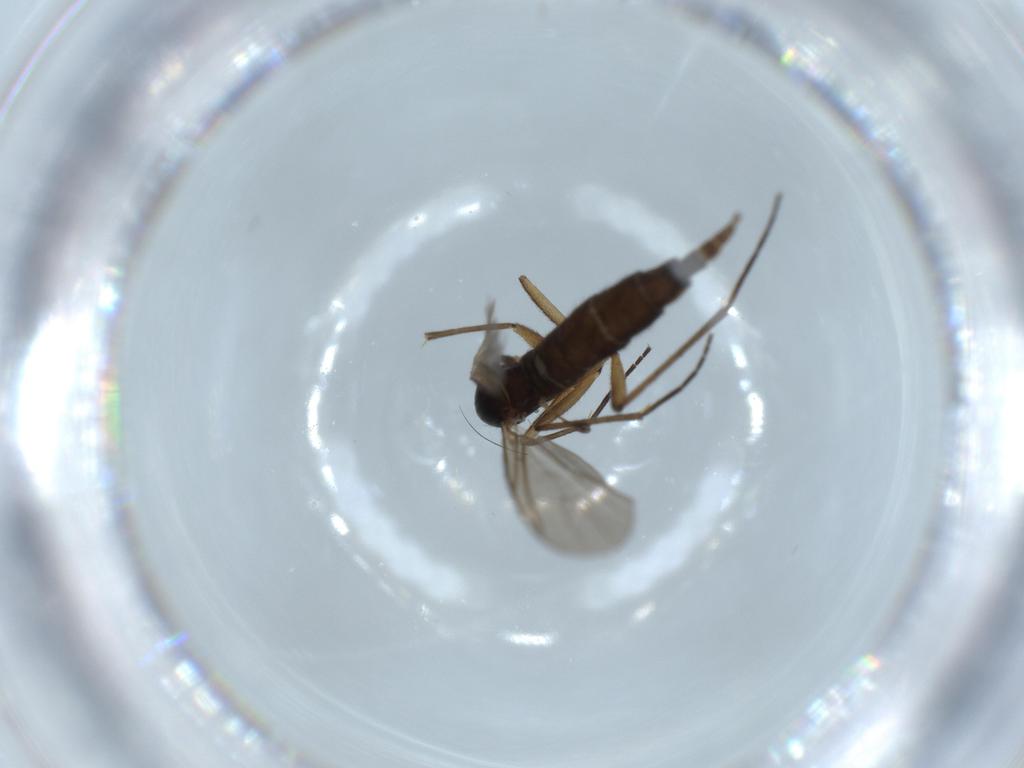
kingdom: Animalia
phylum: Arthropoda
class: Insecta
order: Diptera
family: Sciaridae
